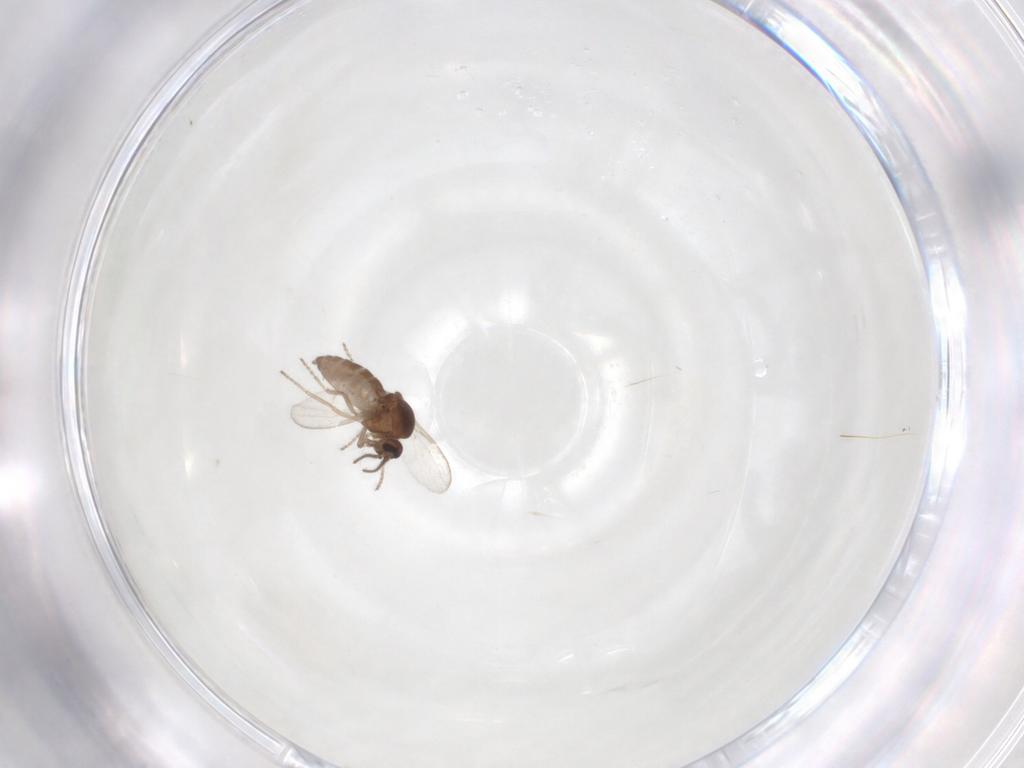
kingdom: Animalia
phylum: Arthropoda
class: Insecta
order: Diptera
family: Ceratopogonidae
